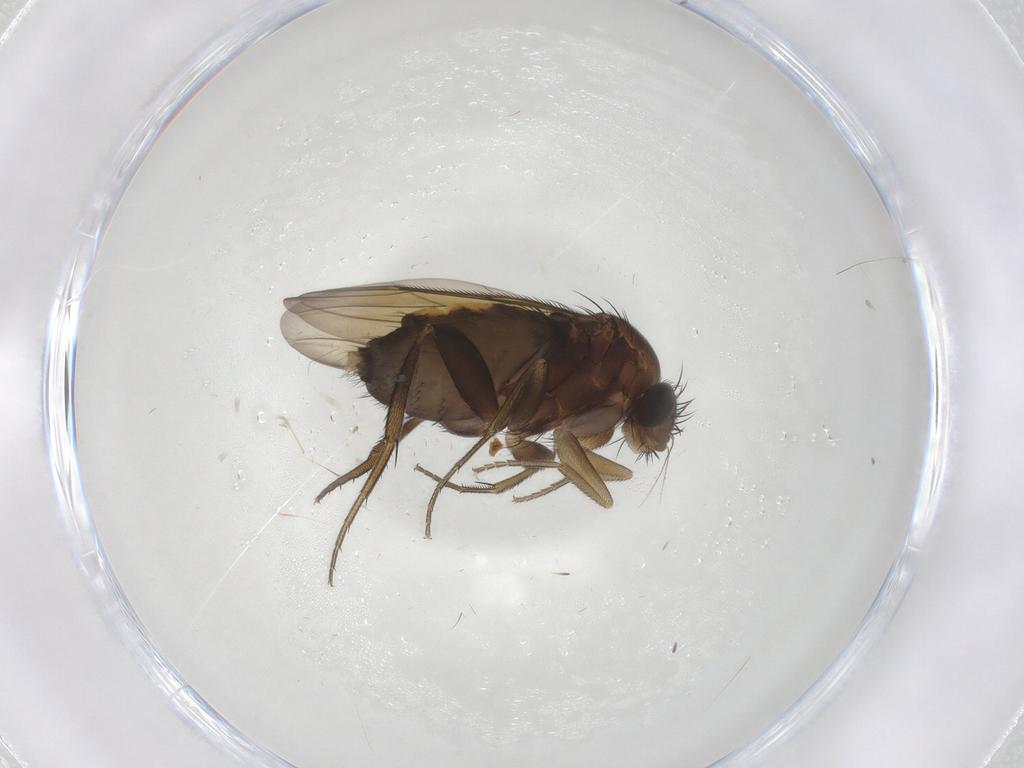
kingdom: Animalia
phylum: Arthropoda
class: Insecta
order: Diptera
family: Phoridae
